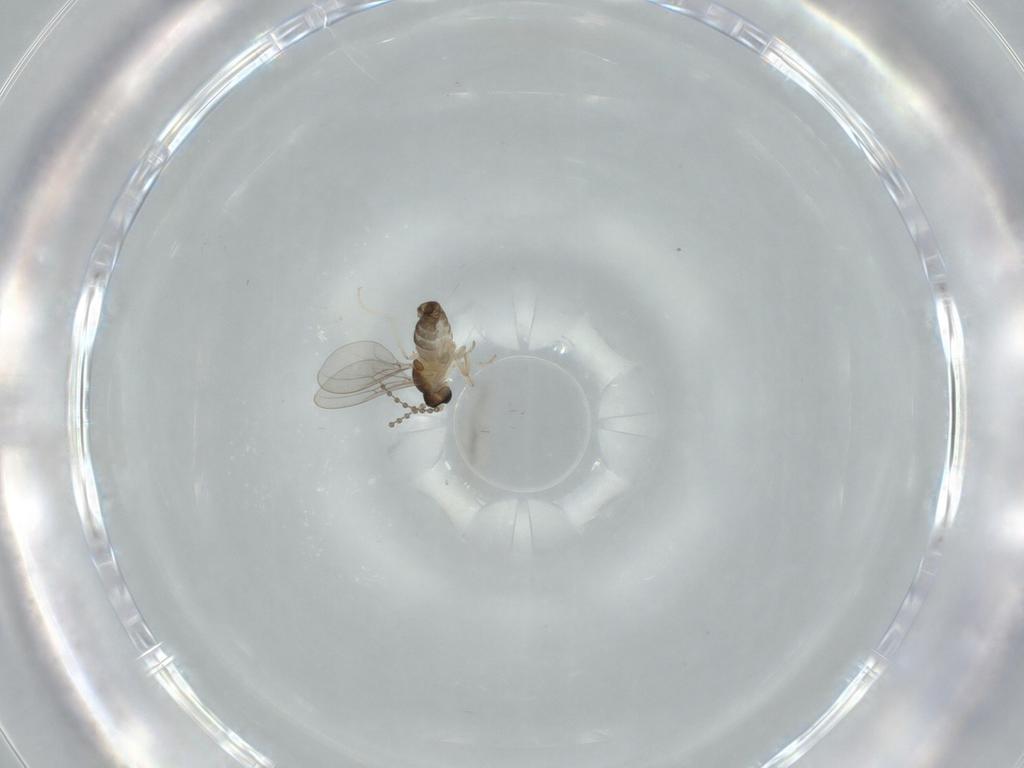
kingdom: Animalia
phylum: Arthropoda
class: Insecta
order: Diptera
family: Cecidomyiidae
